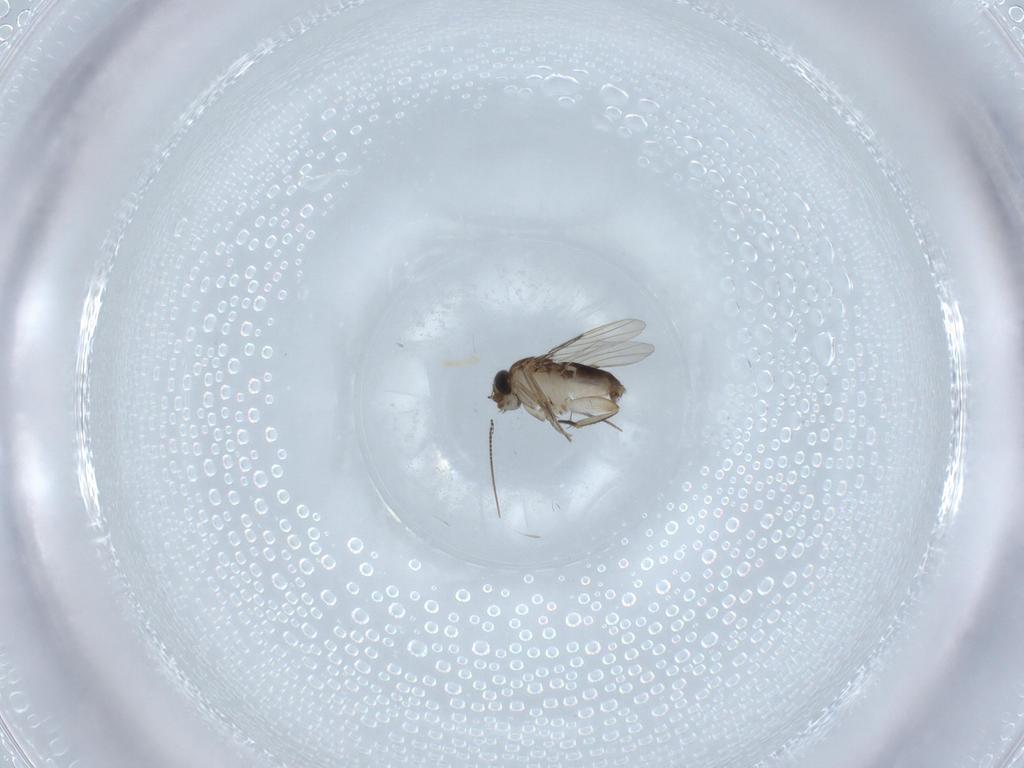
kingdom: Animalia
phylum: Arthropoda
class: Insecta
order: Diptera
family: Phoridae
